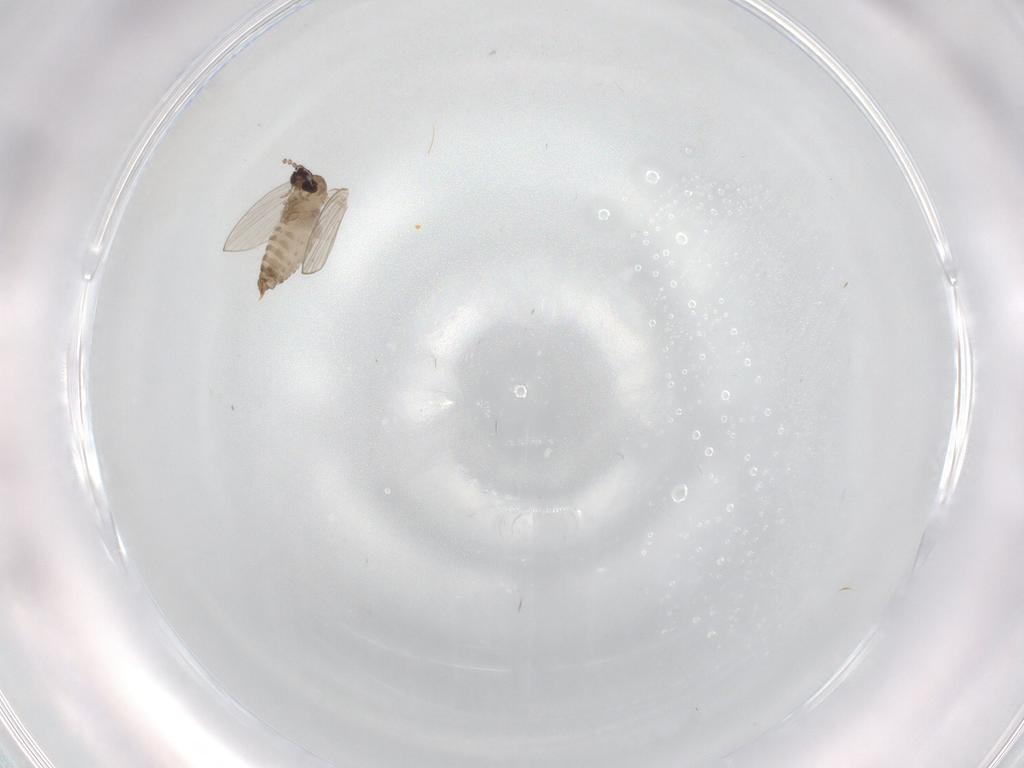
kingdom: Animalia
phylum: Arthropoda
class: Insecta
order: Diptera
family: Psychodidae
